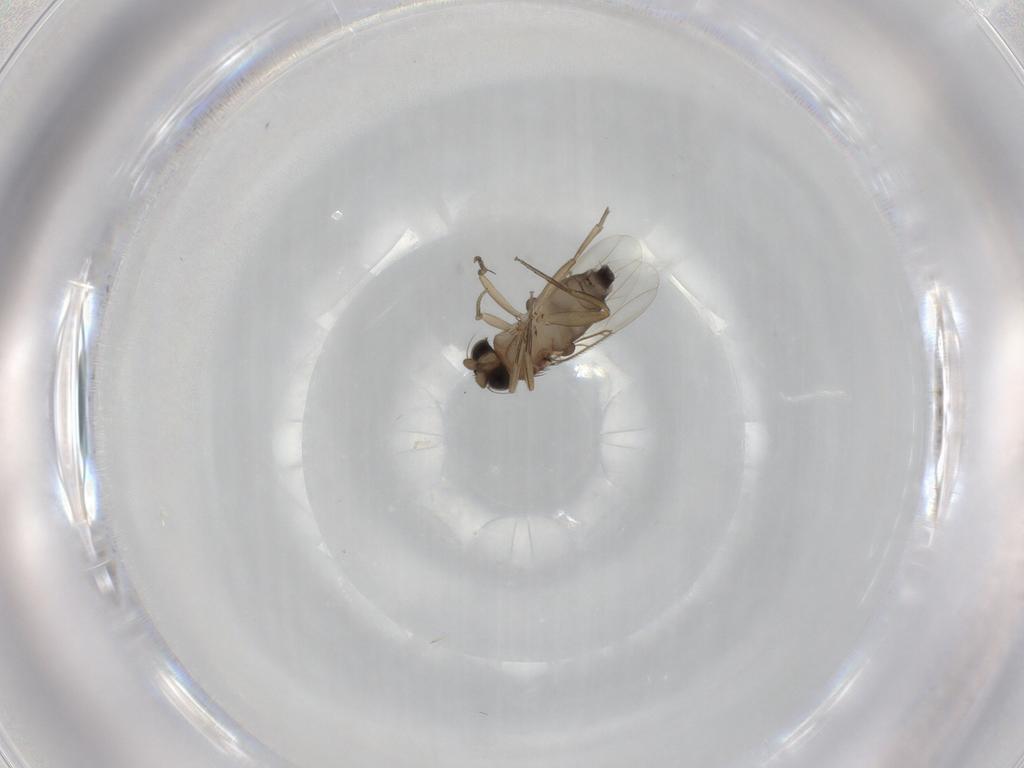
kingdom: Animalia
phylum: Arthropoda
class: Insecta
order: Diptera
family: Phoridae
